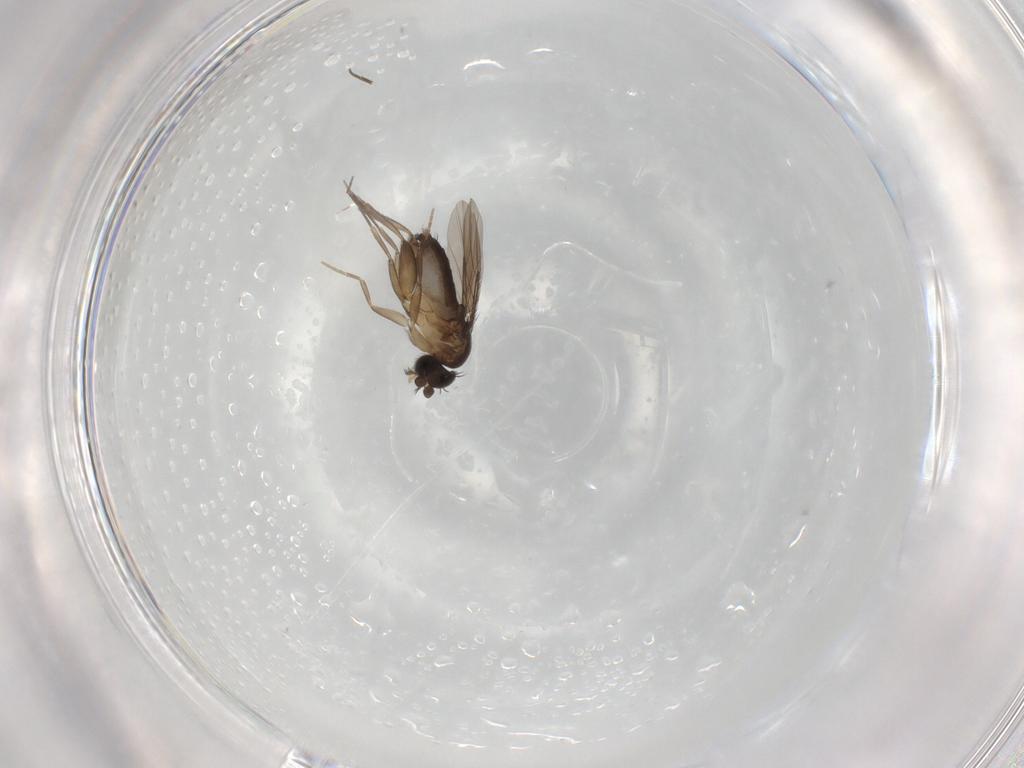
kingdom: Animalia
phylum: Arthropoda
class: Insecta
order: Diptera
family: Phoridae
